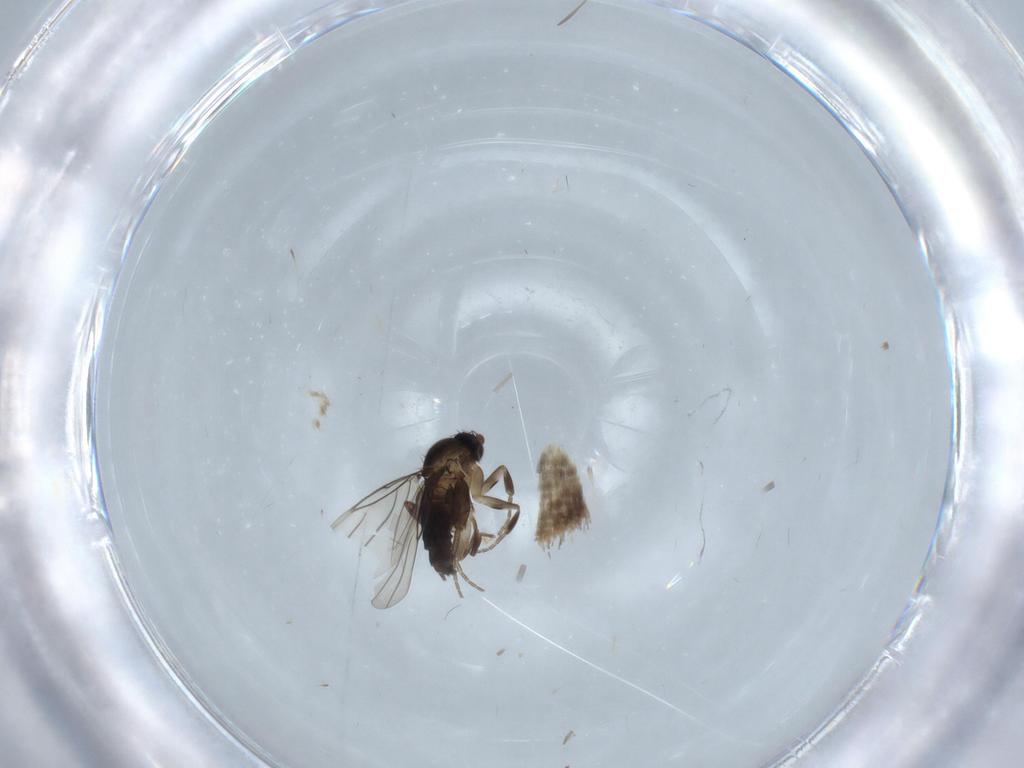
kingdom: Animalia
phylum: Arthropoda
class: Insecta
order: Diptera
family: Phoridae
